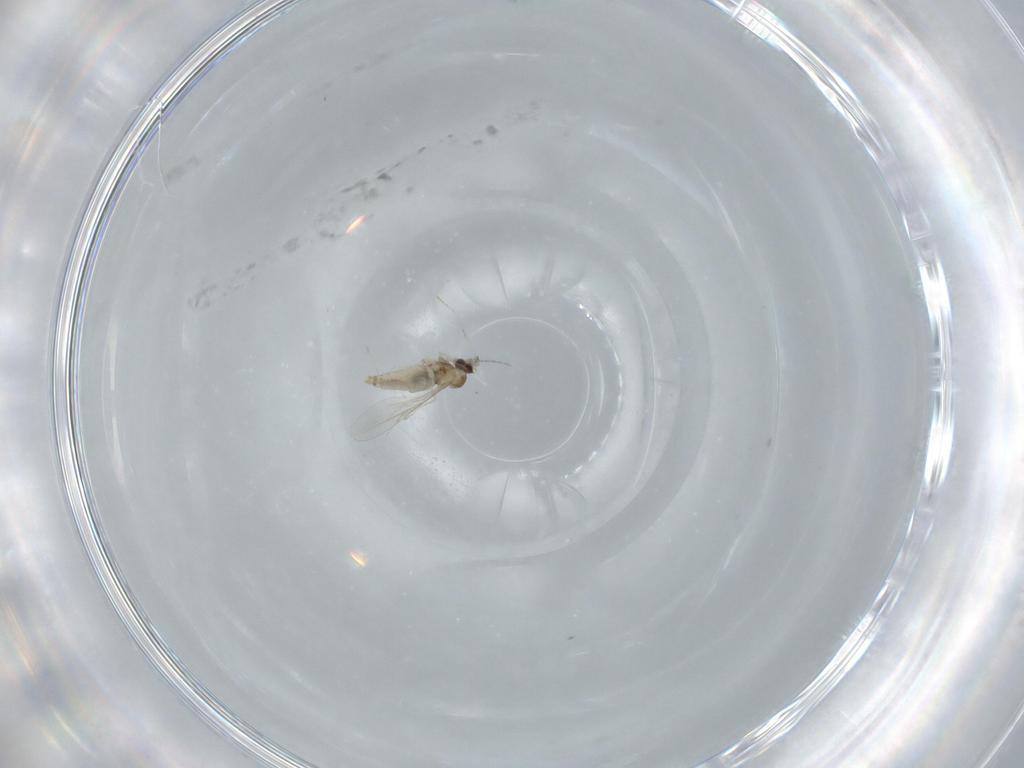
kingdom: Animalia
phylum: Arthropoda
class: Insecta
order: Diptera
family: Cecidomyiidae
